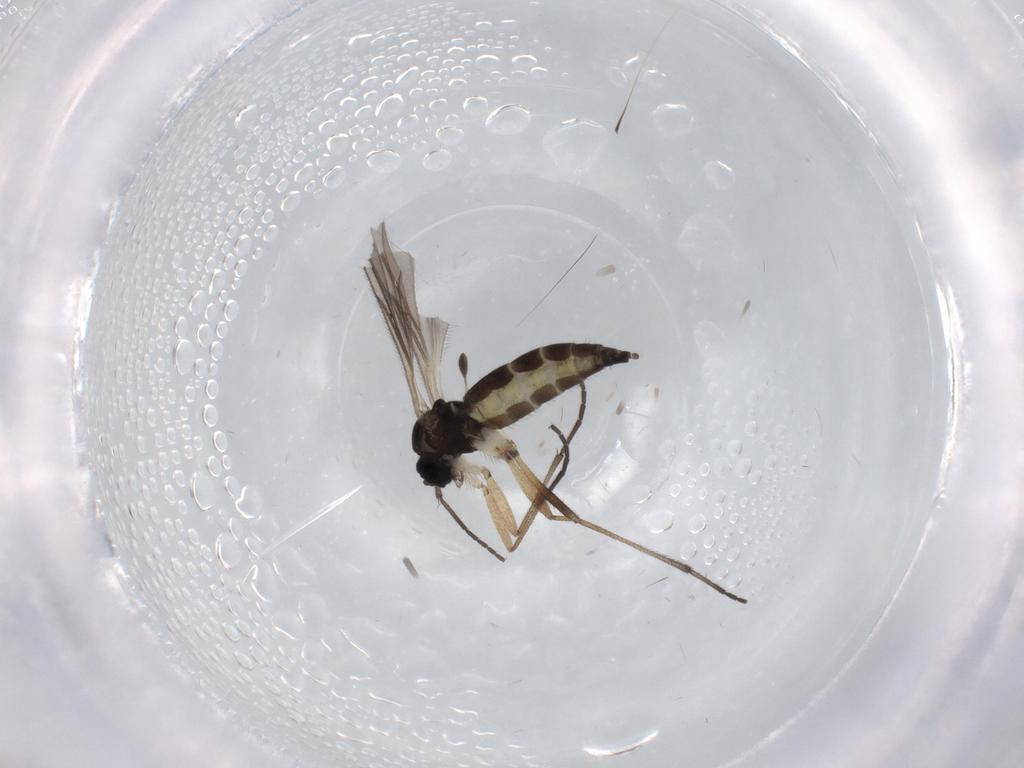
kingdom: Animalia
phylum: Arthropoda
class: Insecta
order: Diptera
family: Sciaridae
